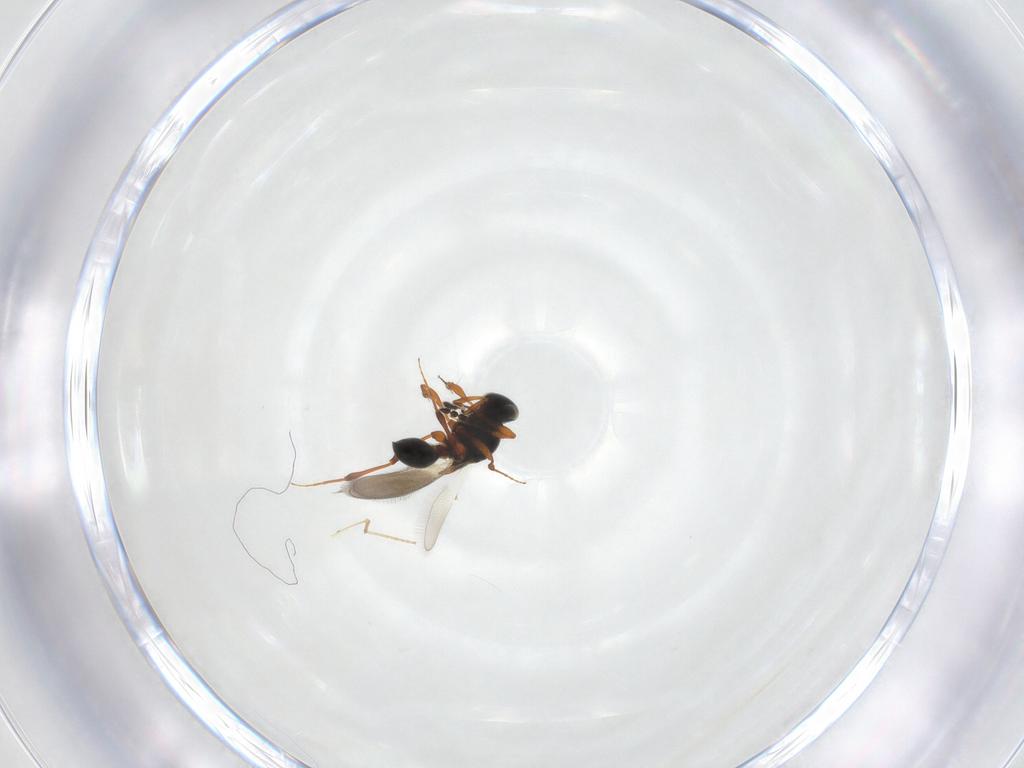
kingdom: Animalia
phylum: Arthropoda
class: Insecta
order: Hymenoptera
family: Platygastridae
